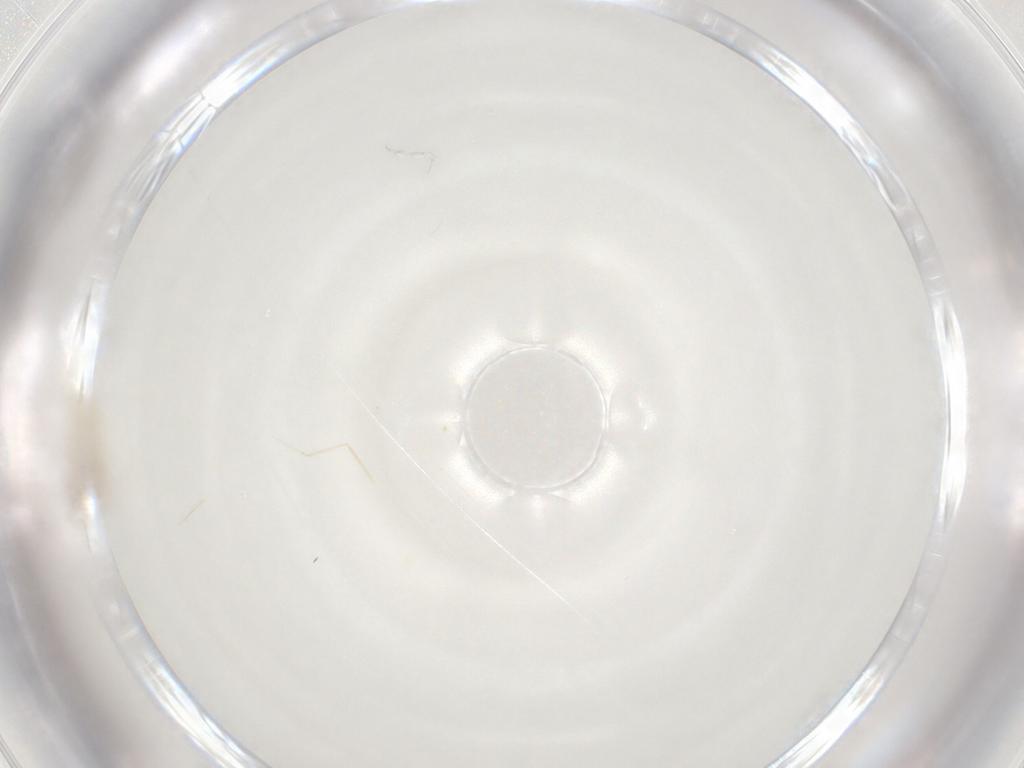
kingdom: Animalia
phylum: Arthropoda
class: Insecta
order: Diptera
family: Cecidomyiidae
